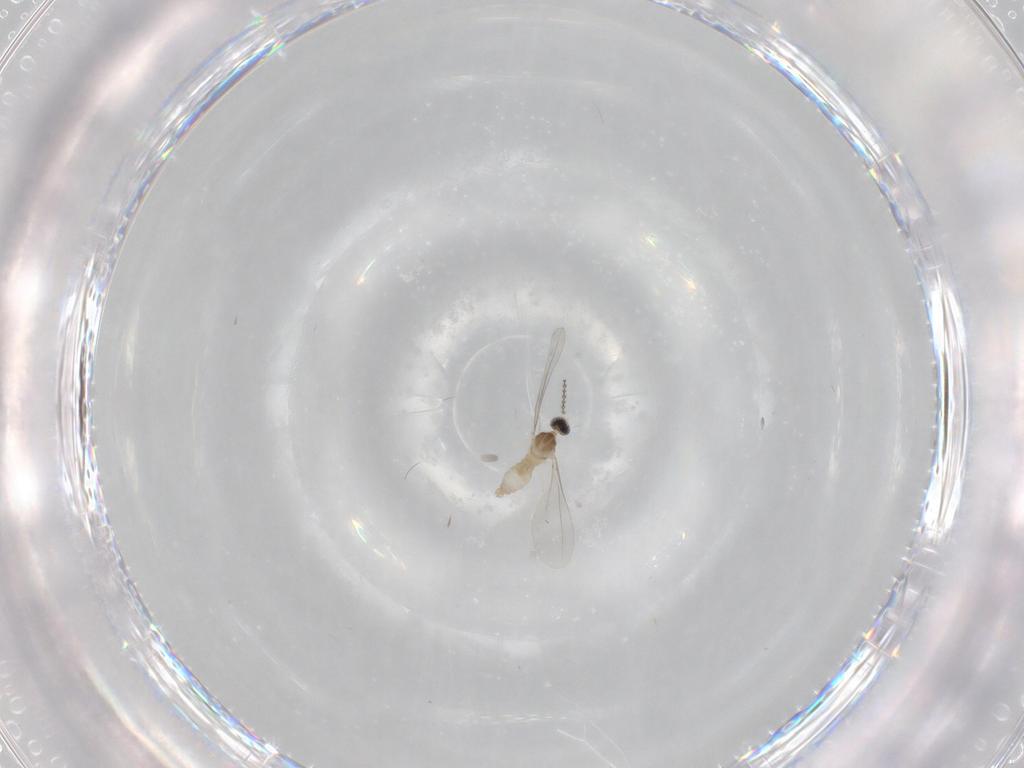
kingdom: Animalia
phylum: Arthropoda
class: Insecta
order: Diptera
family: Cecidomyiidae
